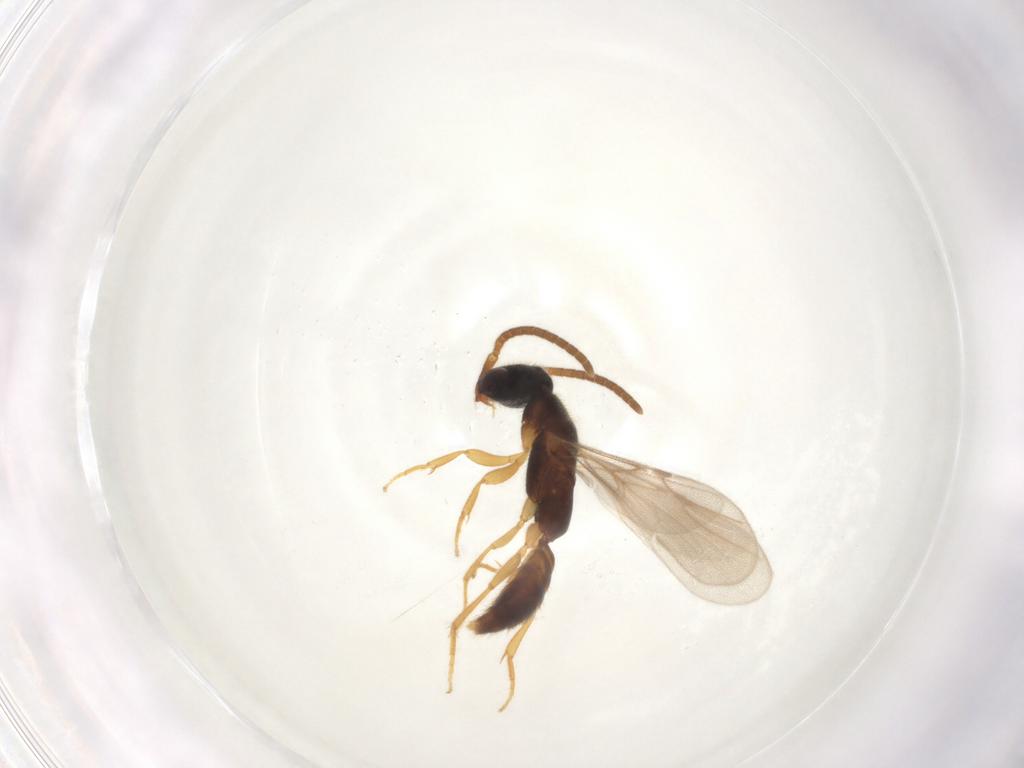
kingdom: Animalia
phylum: Arthropoda
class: Insecta
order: Hymenoptera
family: Bethylidae
